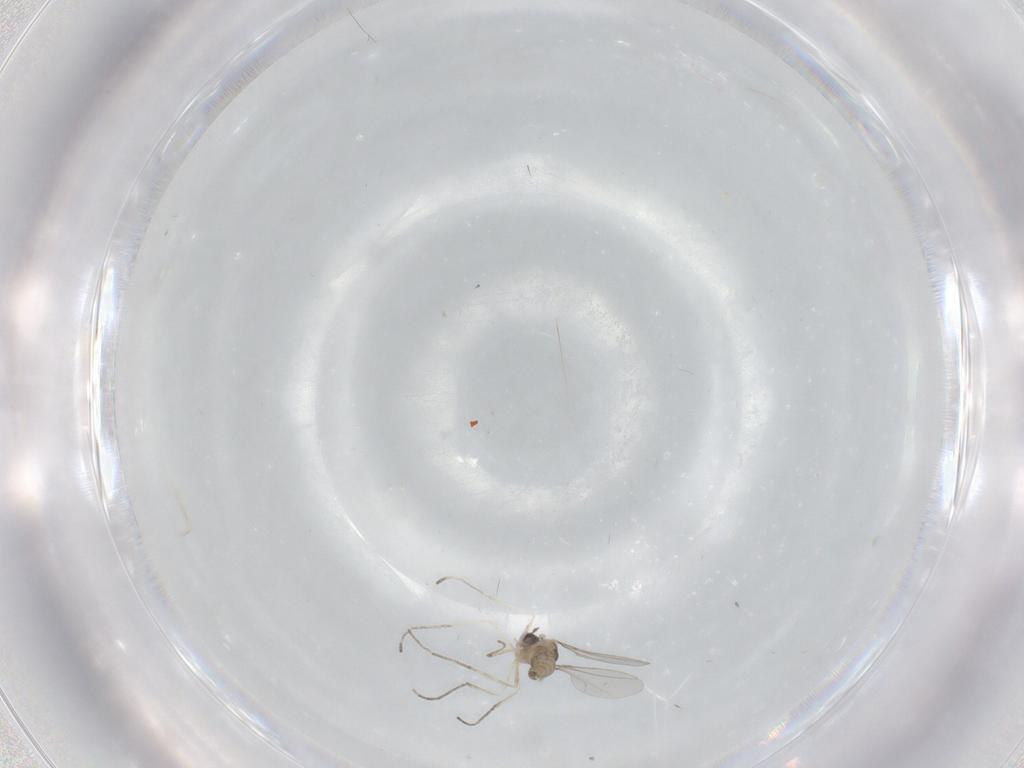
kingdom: Animalia
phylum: Arthropoda
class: Insecta
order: Diptera
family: Cecidomyiidae
